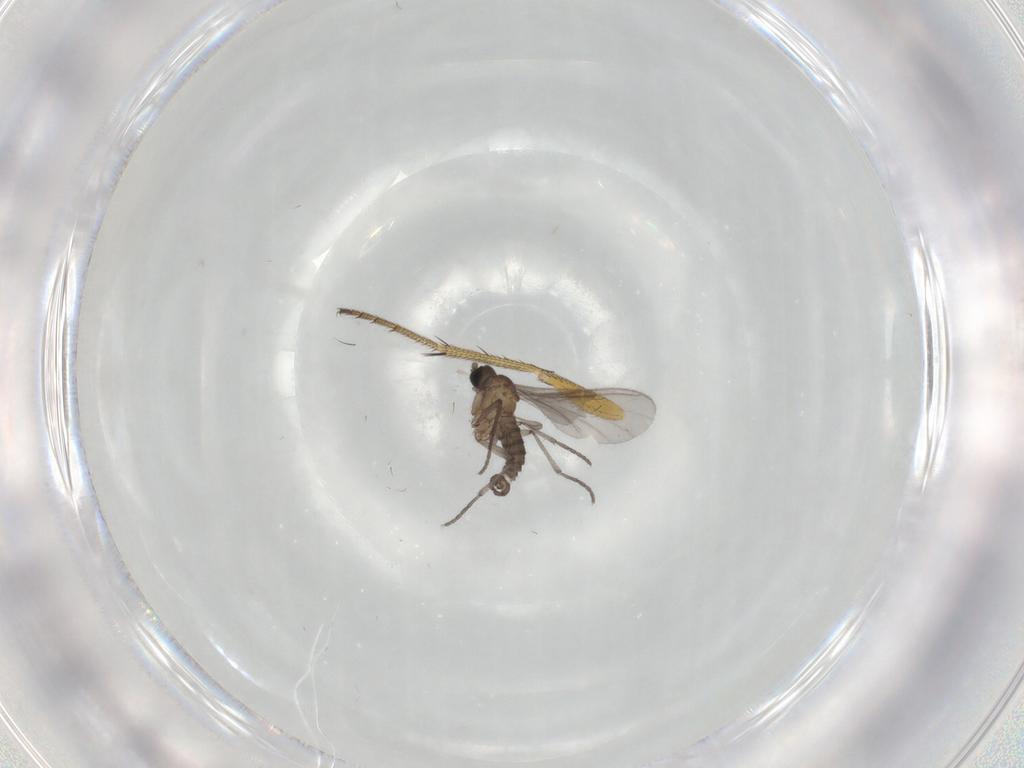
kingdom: Animalia
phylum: Arthropoda
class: Insecta
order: Diptera
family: Sciaridae
